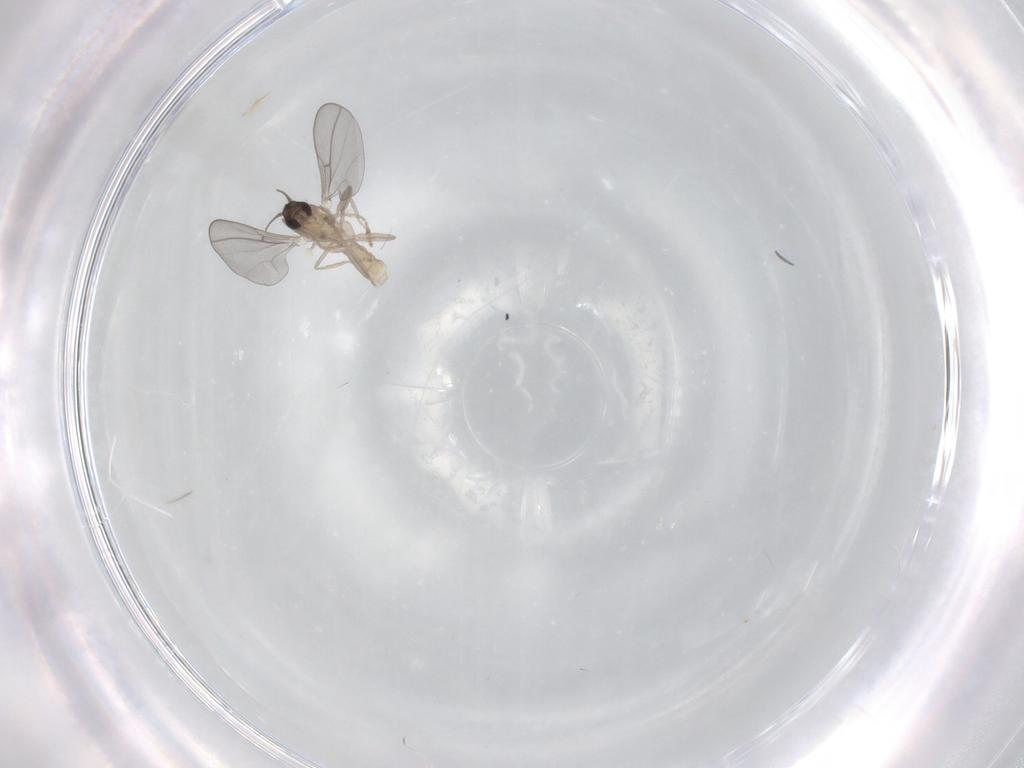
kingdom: Animalia
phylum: Arthropoda
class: Insecta
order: Diptera
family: Cecidomyiidae
